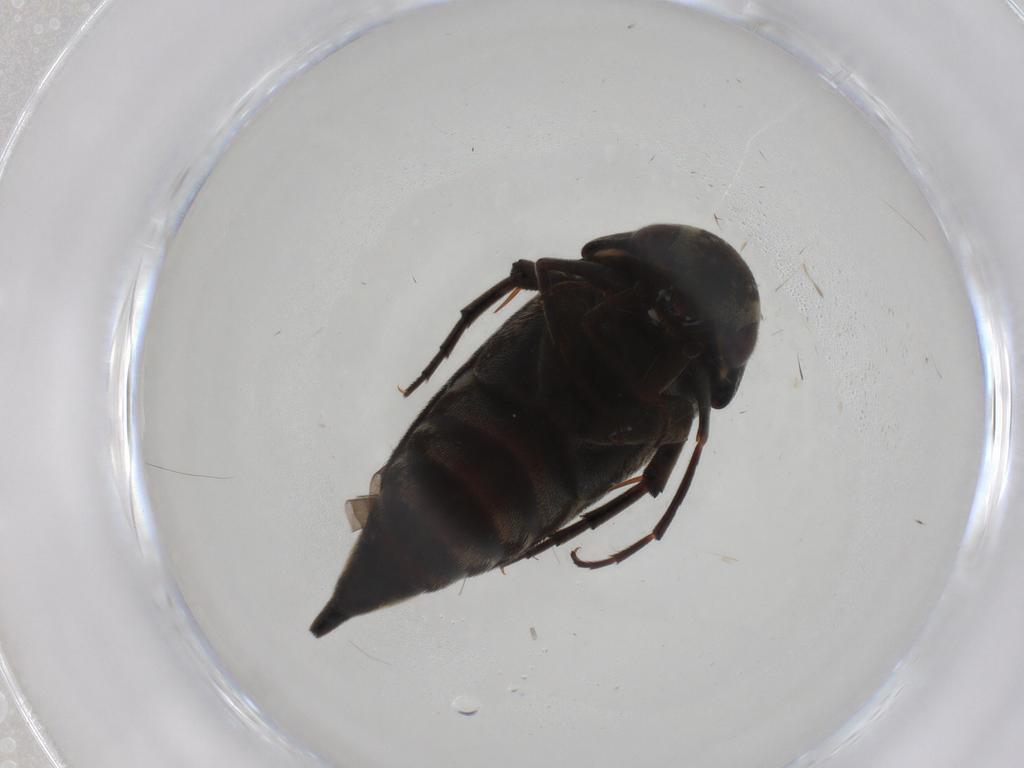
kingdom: Animalia
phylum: Arthropoda
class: Insecta
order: Coleoptera
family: Mordellidae
